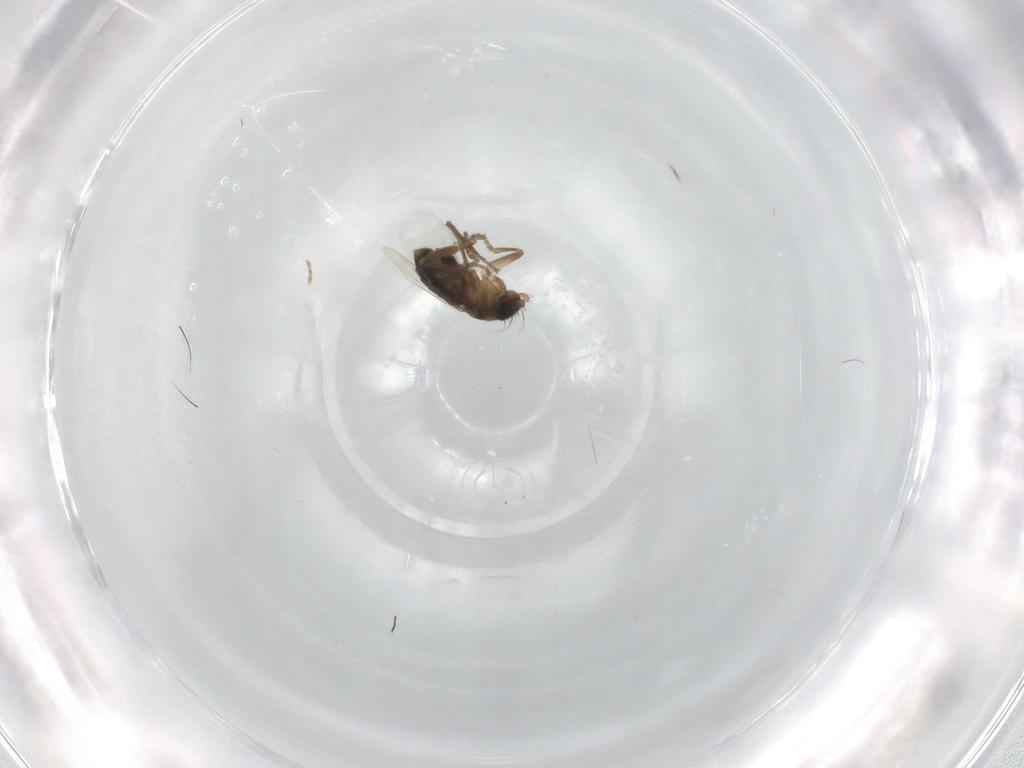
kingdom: Animalia
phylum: Arthropoda
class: Insecta
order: Diptera
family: Phoridae
